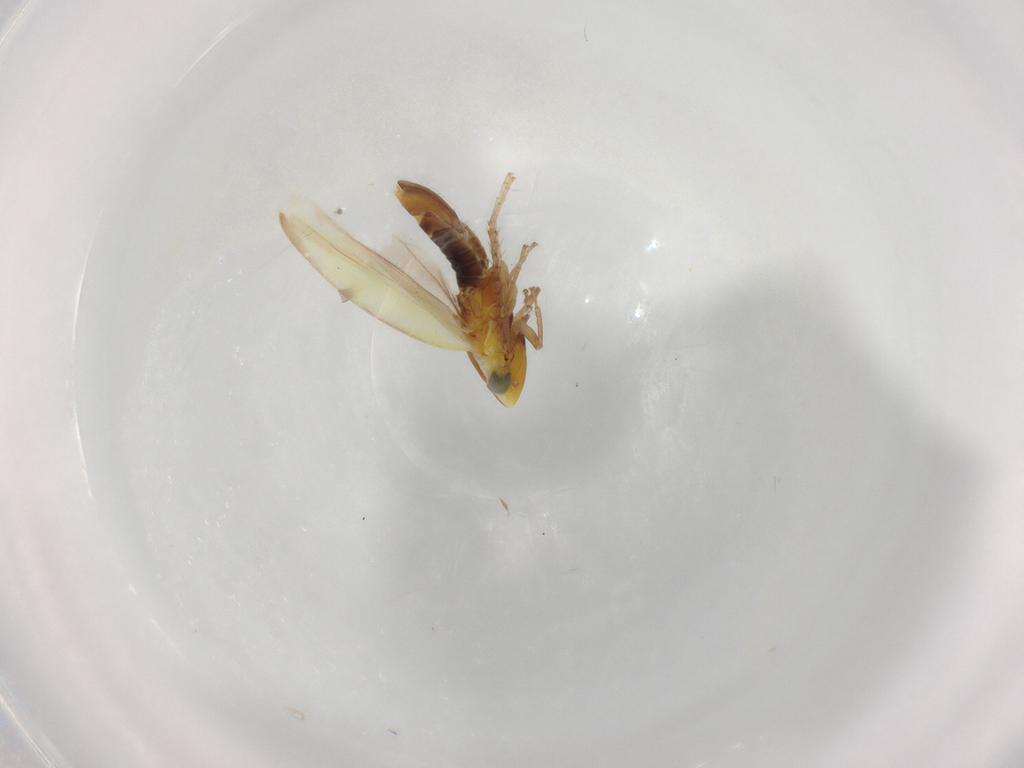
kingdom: Animalia
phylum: Arthropoda
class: Insecta
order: Hemiptera
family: Cicadellidae
